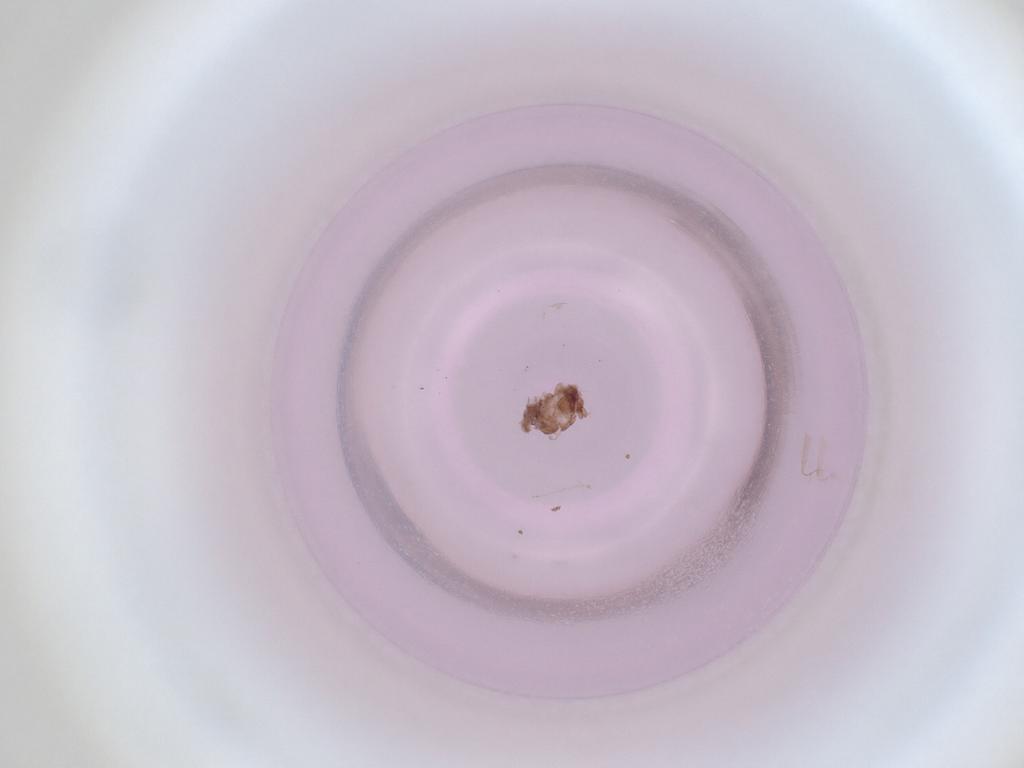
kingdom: Animalia
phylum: Arthropoda
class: Insecta
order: Diptera
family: Cecidomyiidae
